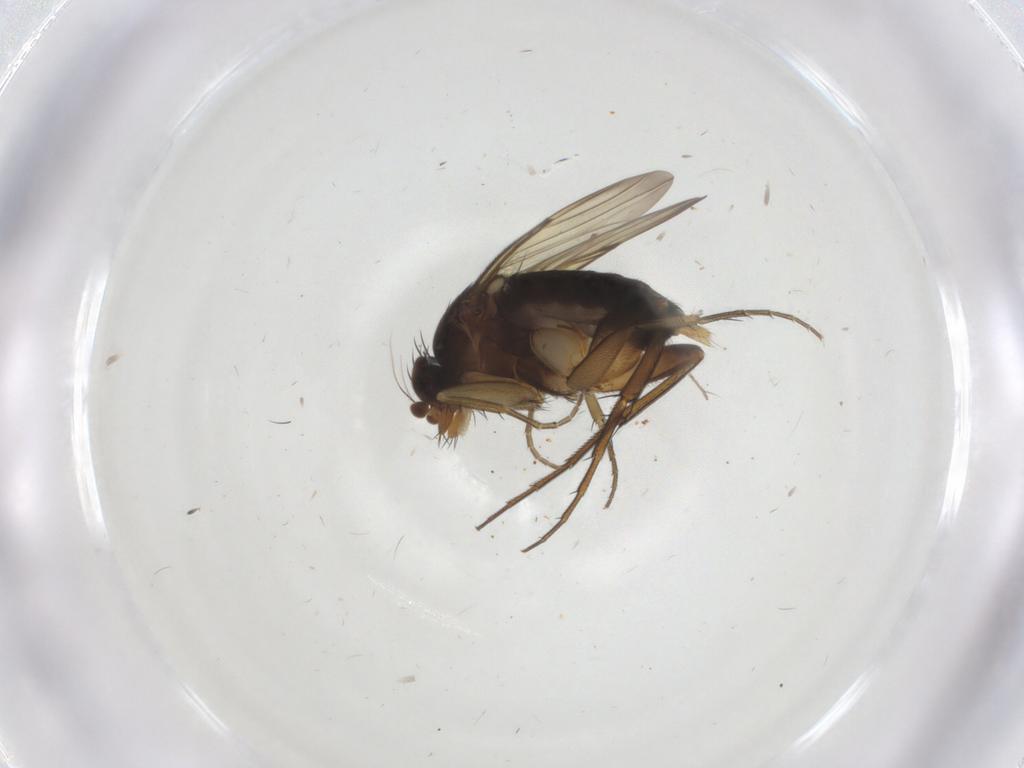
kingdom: Animalia
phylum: Arthropoda
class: Insecta
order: Diptera
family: Phoridae
